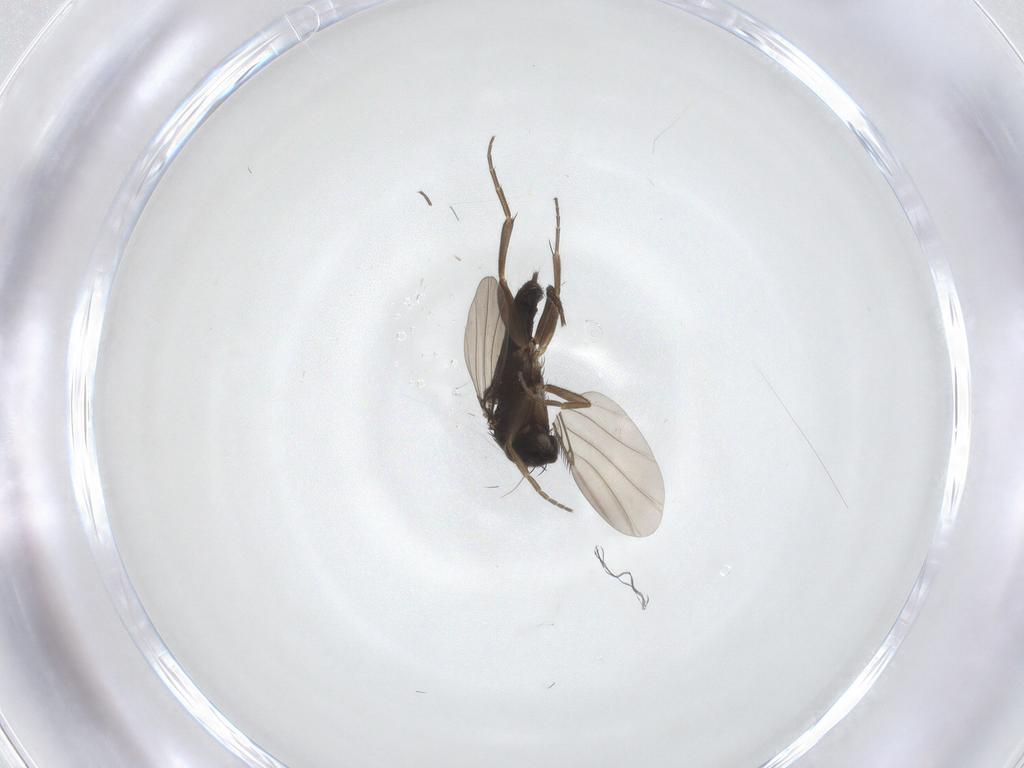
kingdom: Animalia
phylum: Arthropoda
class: Insecta
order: Diptera
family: Phoridae
